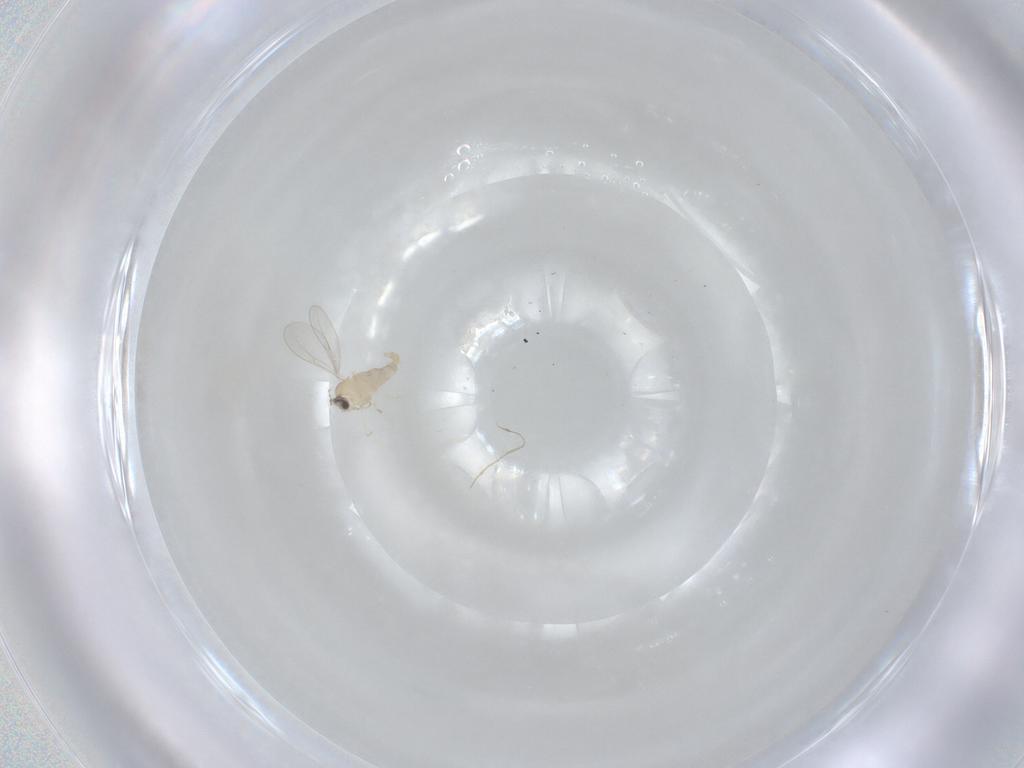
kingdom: Animalia
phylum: Arthropoda
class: Insecta
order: Diptera
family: Cecidomyiidae
